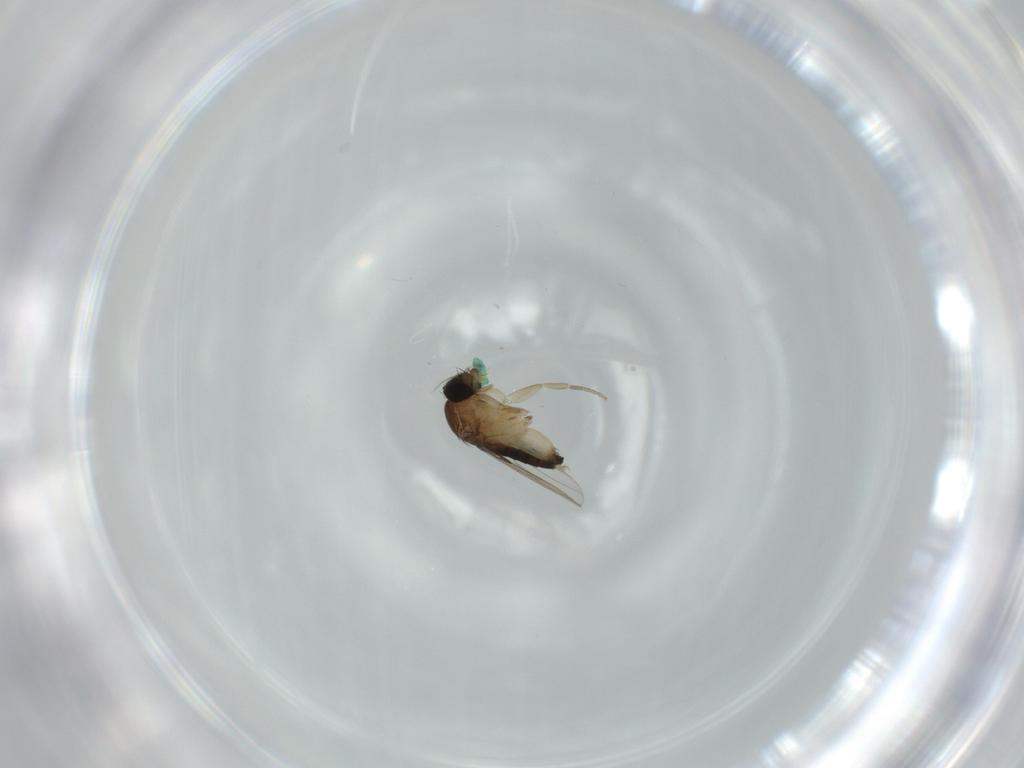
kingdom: Animalia
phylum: Arthropoda
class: Insecta
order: Diptera
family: Phoridae
